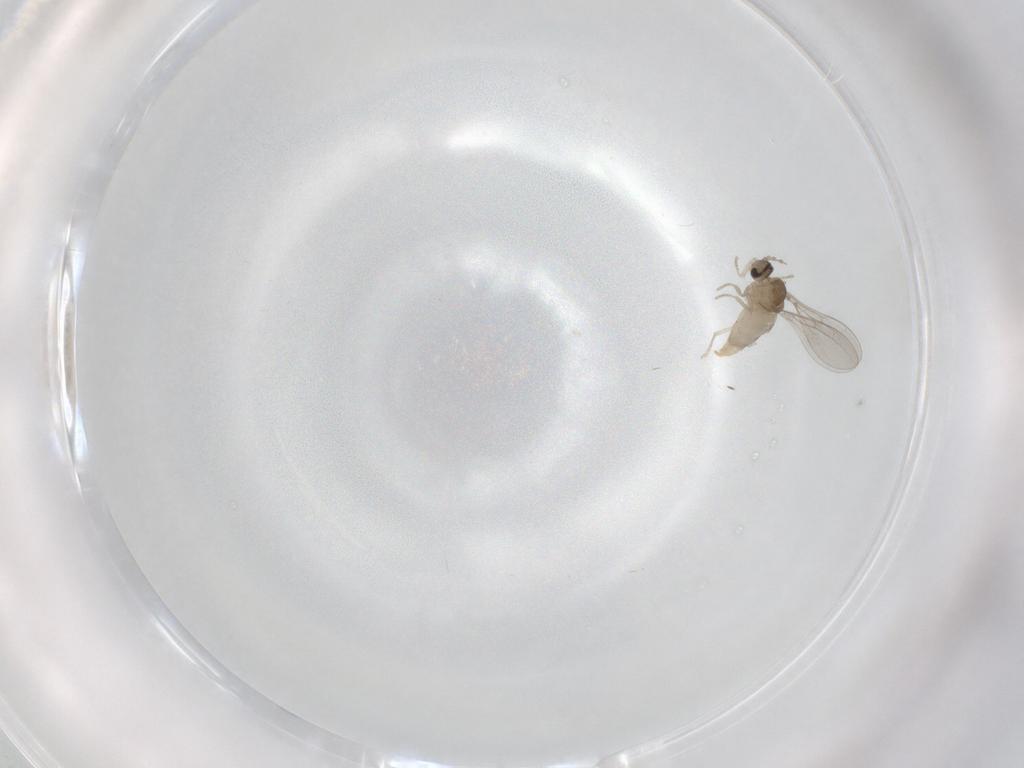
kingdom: Animalia
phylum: Arthropoda
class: Insecta
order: Diptera
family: Cecidomyiidae
